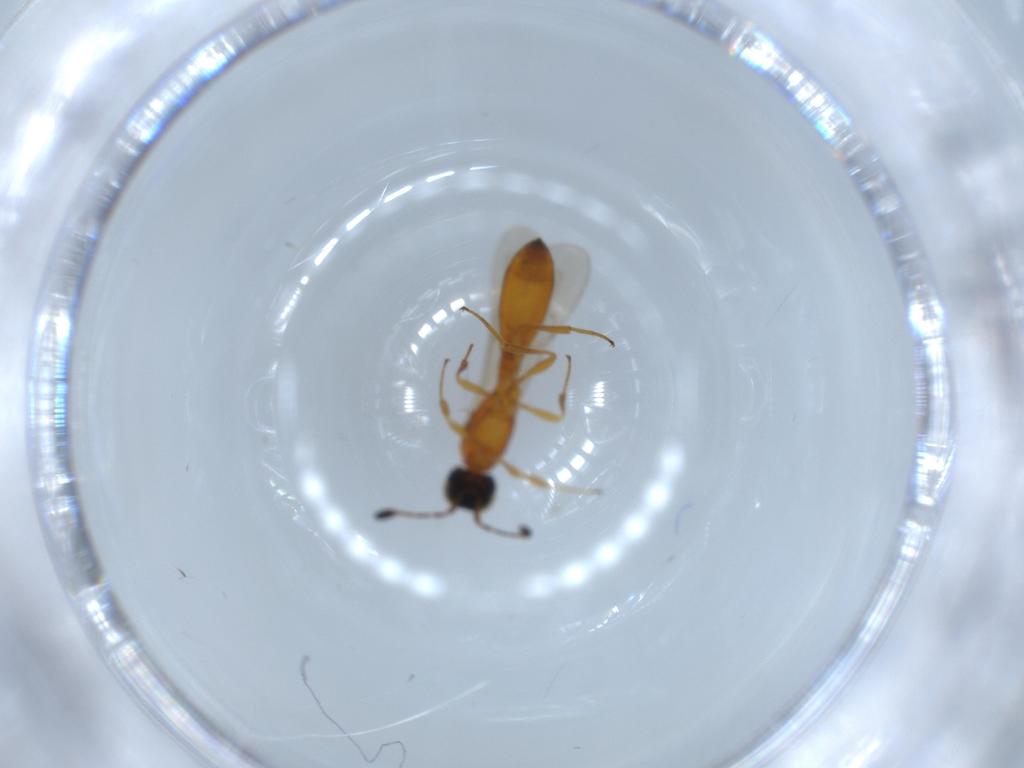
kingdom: Animalia
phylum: Arthropoda
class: Insecta
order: Hymenoptera
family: Scelionidae
